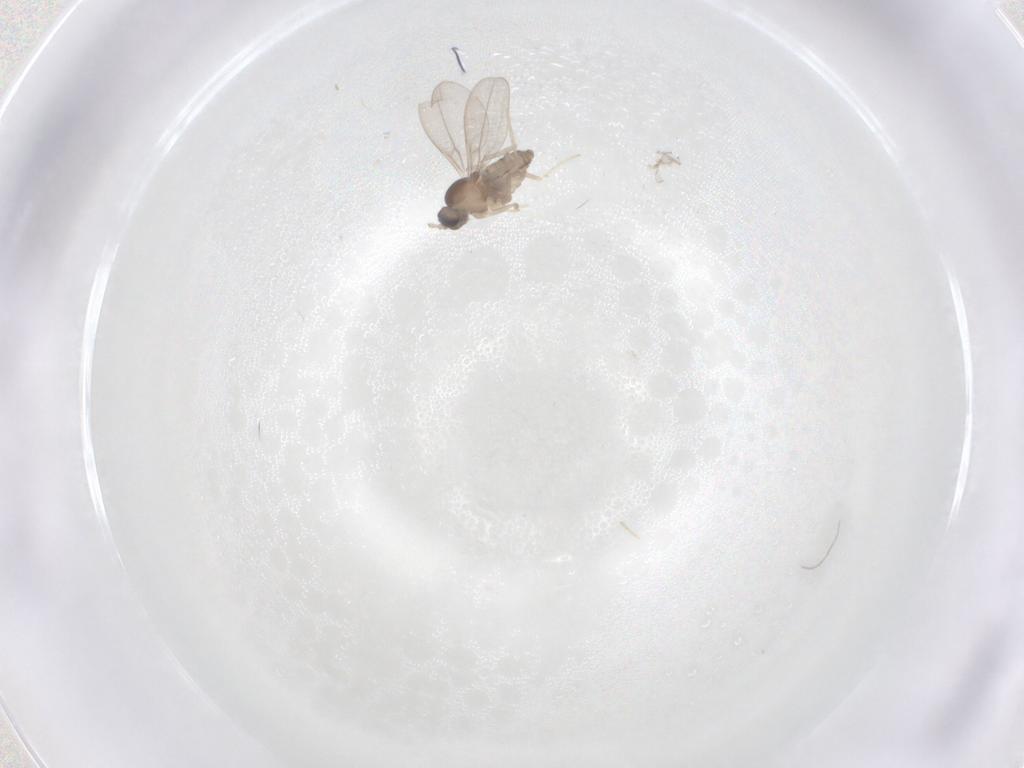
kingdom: Animalia
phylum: Arthropoda
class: Insecta
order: Diptera
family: Cecidomyiidae
